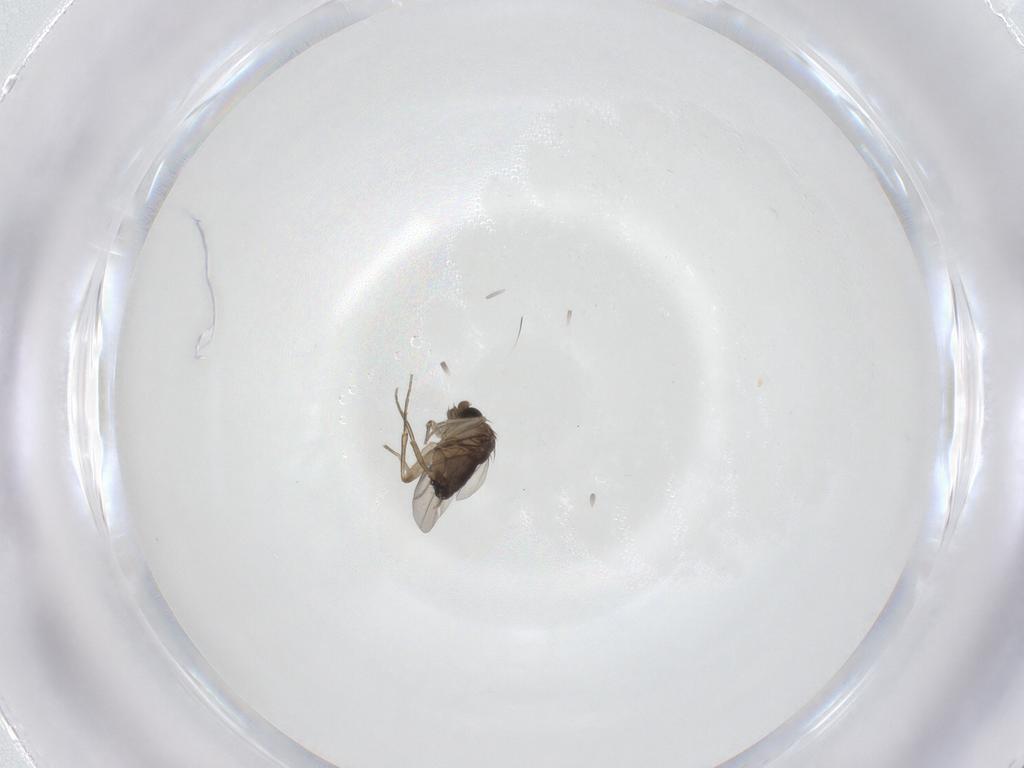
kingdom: Animalia
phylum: Arthropoda
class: Insecta
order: Diptera
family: Phoridae
